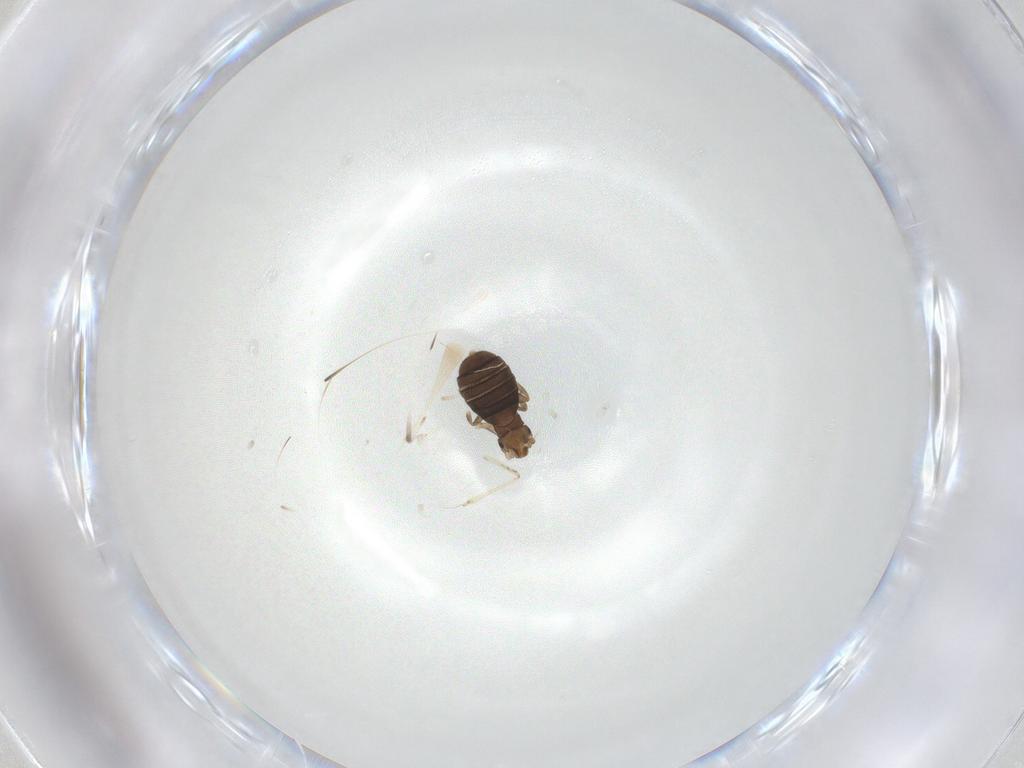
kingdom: Animalia
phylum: Arthropoda
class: Insecta
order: Diptera
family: Phoridae
